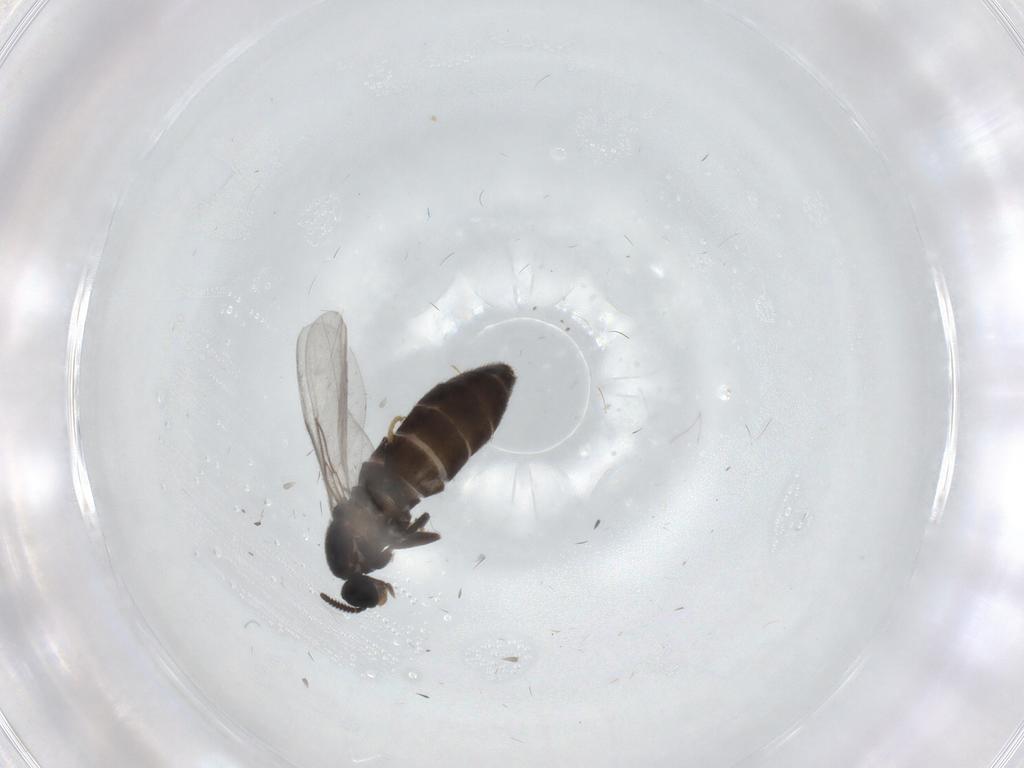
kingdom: Animalia
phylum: Arthropoda
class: Insecta
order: Diptera
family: Scatopsidae
